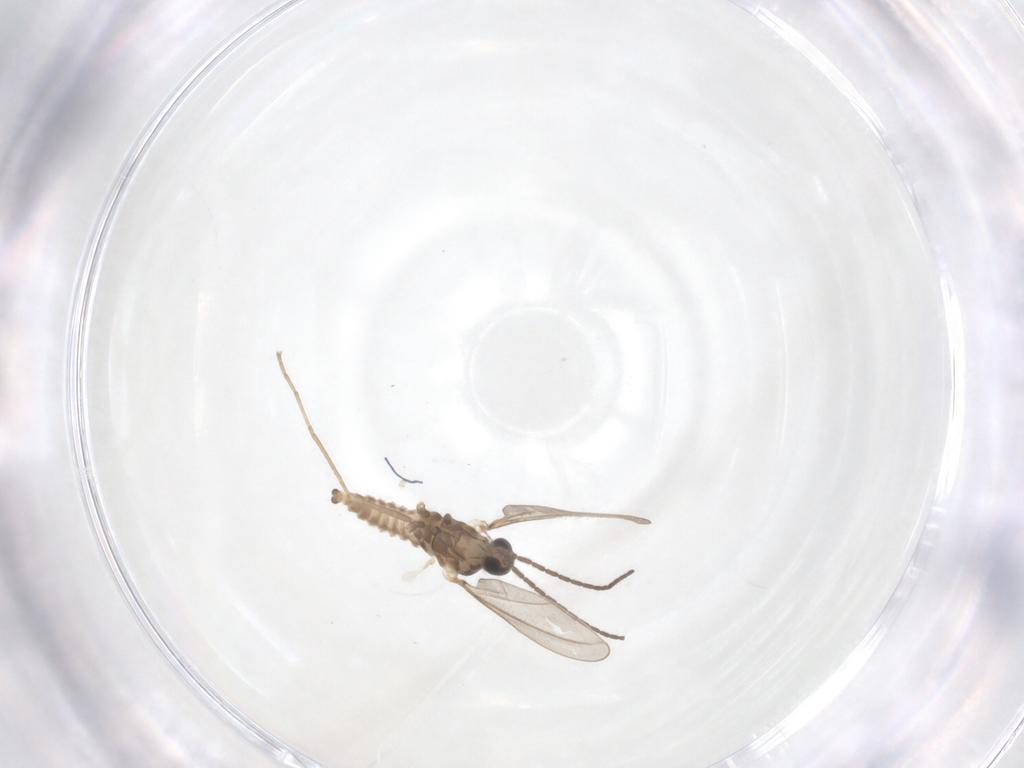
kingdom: Animalia
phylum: Arthropoda
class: Insecta
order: Diptera
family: Cecidomyiidae
